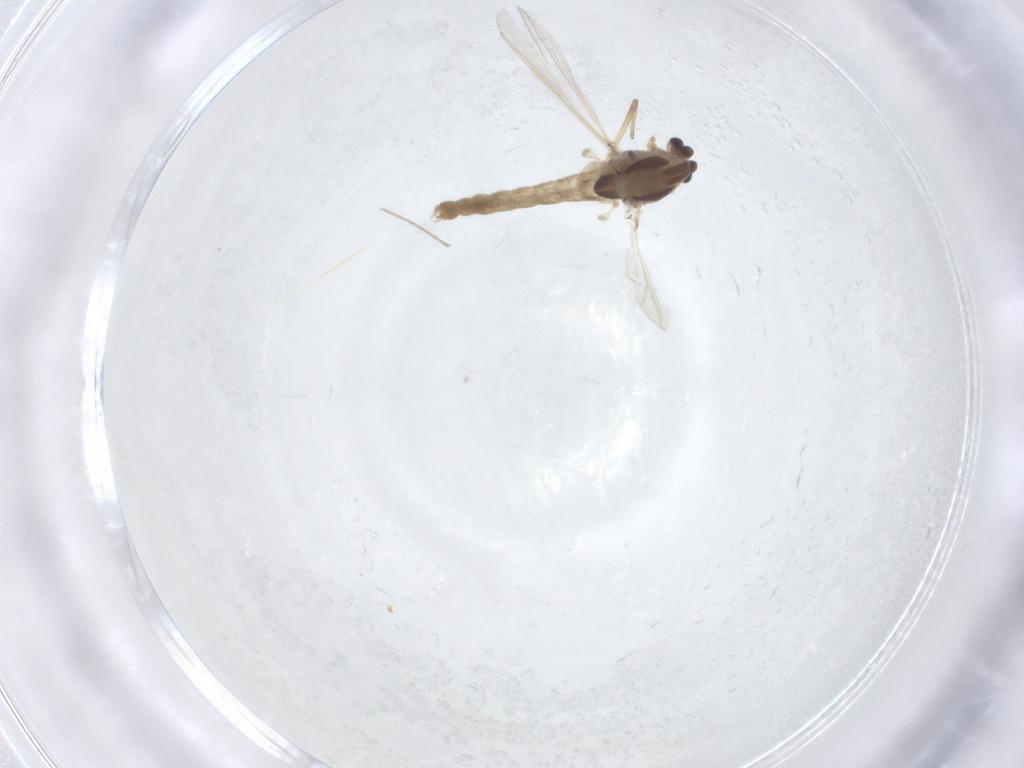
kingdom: Animalia
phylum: Arthropoda
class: Insecta
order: Diptera
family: Chironomidae
